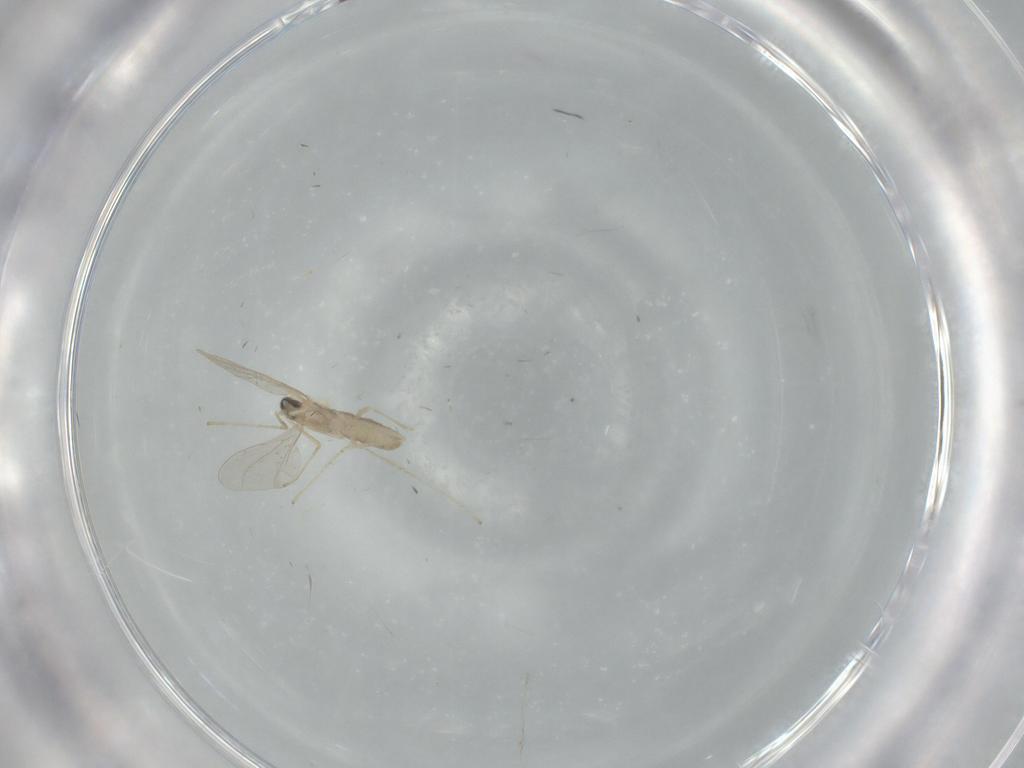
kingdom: Animalia
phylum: Arthropoda
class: Insecta
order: Diptera
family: Cecidomyiidae
